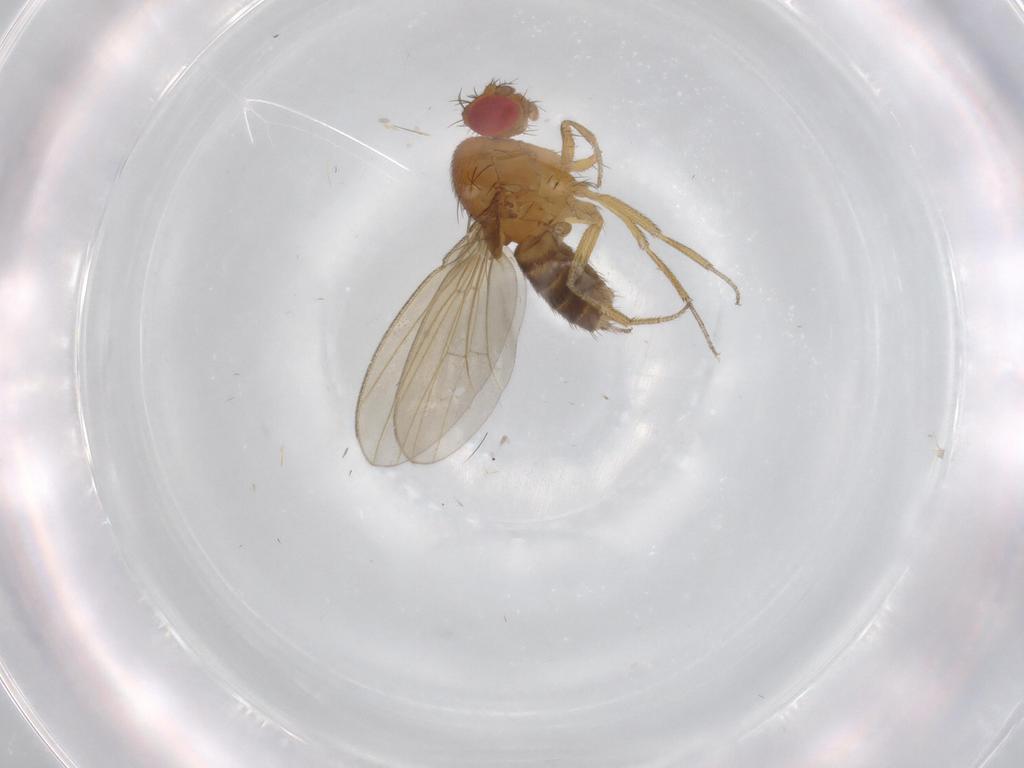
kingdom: Animalia
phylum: Arthropoda
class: Insecta
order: Diptera
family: Drosophilidae
